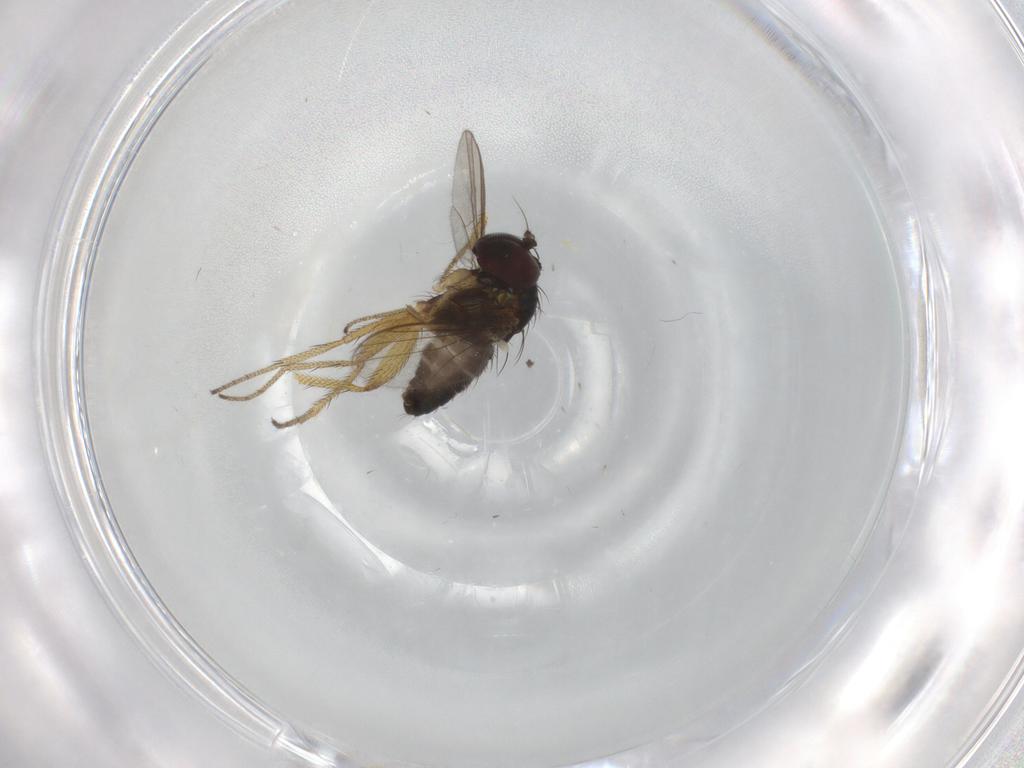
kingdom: Animalia
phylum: Arthropoda
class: Insecta
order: Diptera
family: Dolichopodidae
